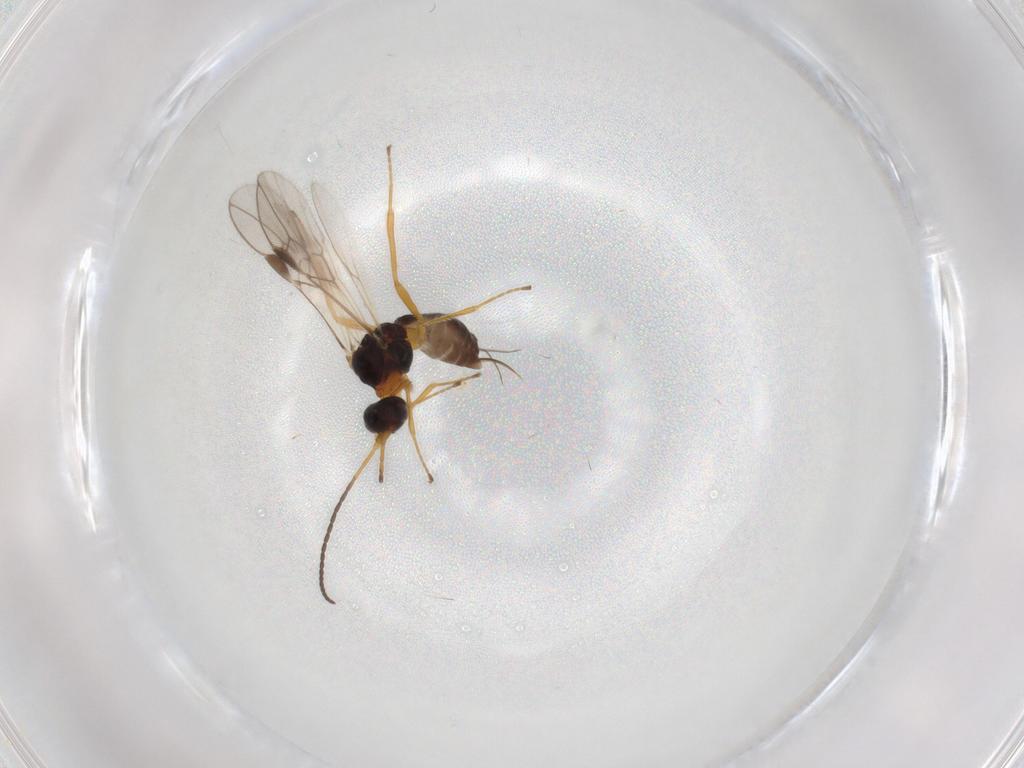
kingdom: Animalia
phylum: Arthropoda
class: Insecta
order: Hymenoptera
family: Braconidae
